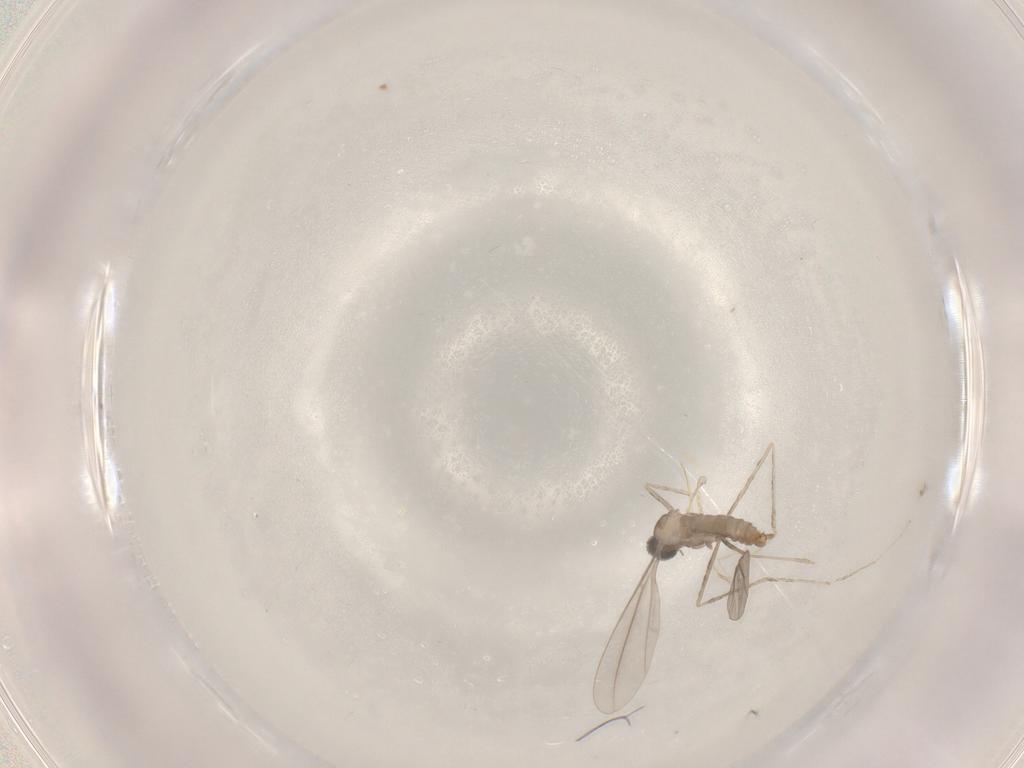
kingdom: Animalia
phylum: Arthropoda
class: Insecta
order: Diptera
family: Cecidomyiidae
